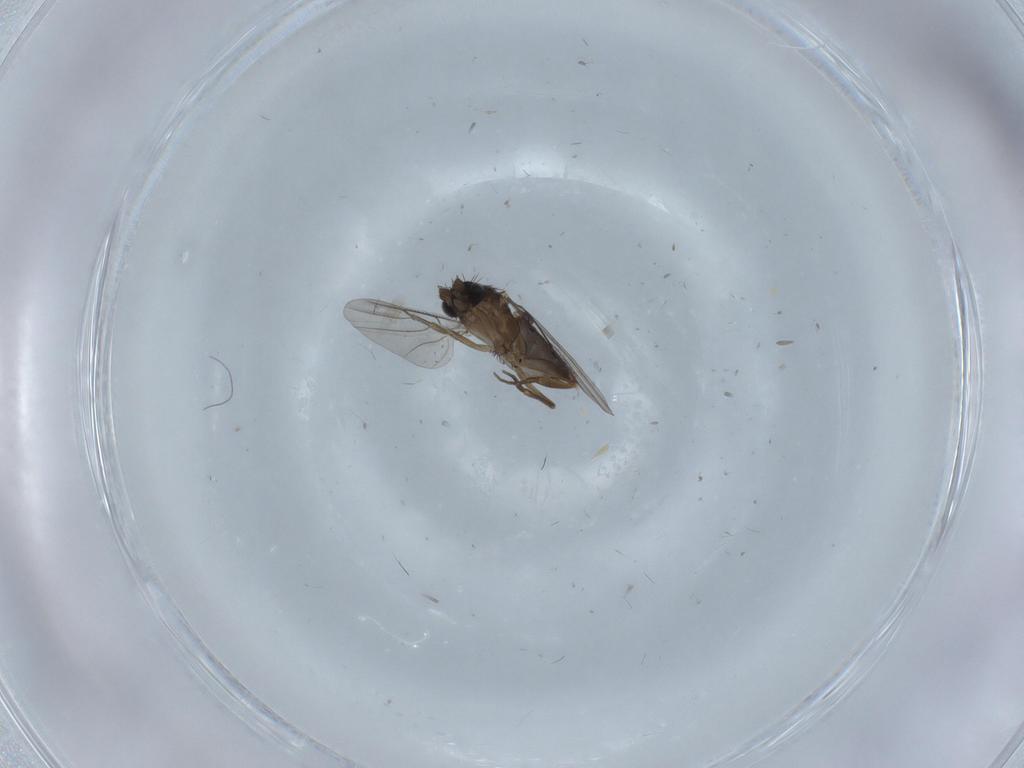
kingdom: Animalia
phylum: Arthropoda
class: Insecta
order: Diptera
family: Phoridae
